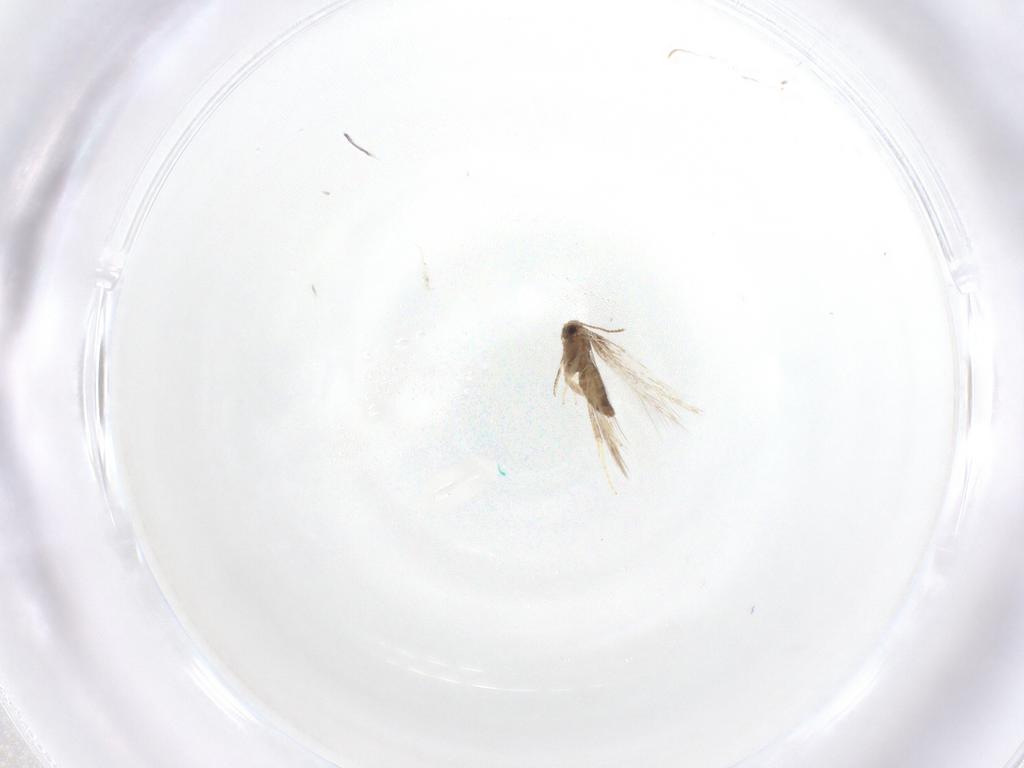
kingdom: Animalia
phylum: Arthropoda
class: Insecta
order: Lepidoptera
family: Nepticulidae
